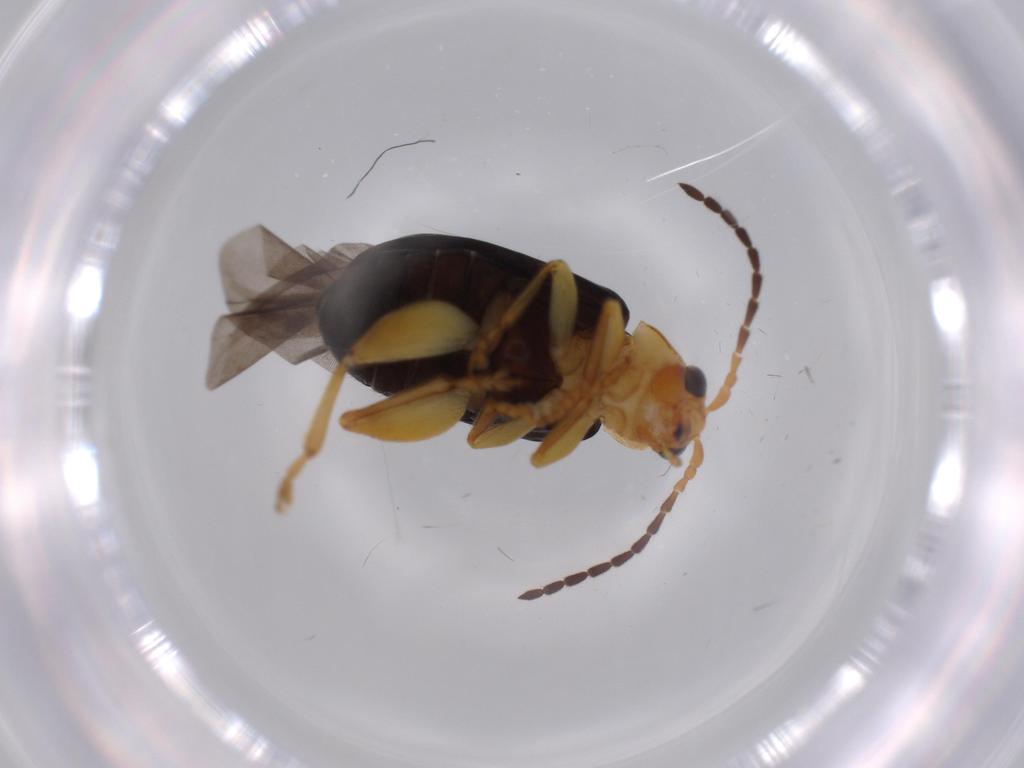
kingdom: Animalia
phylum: Arthropoda
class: Insecta
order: Coleoptera
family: Chrysomelidae
